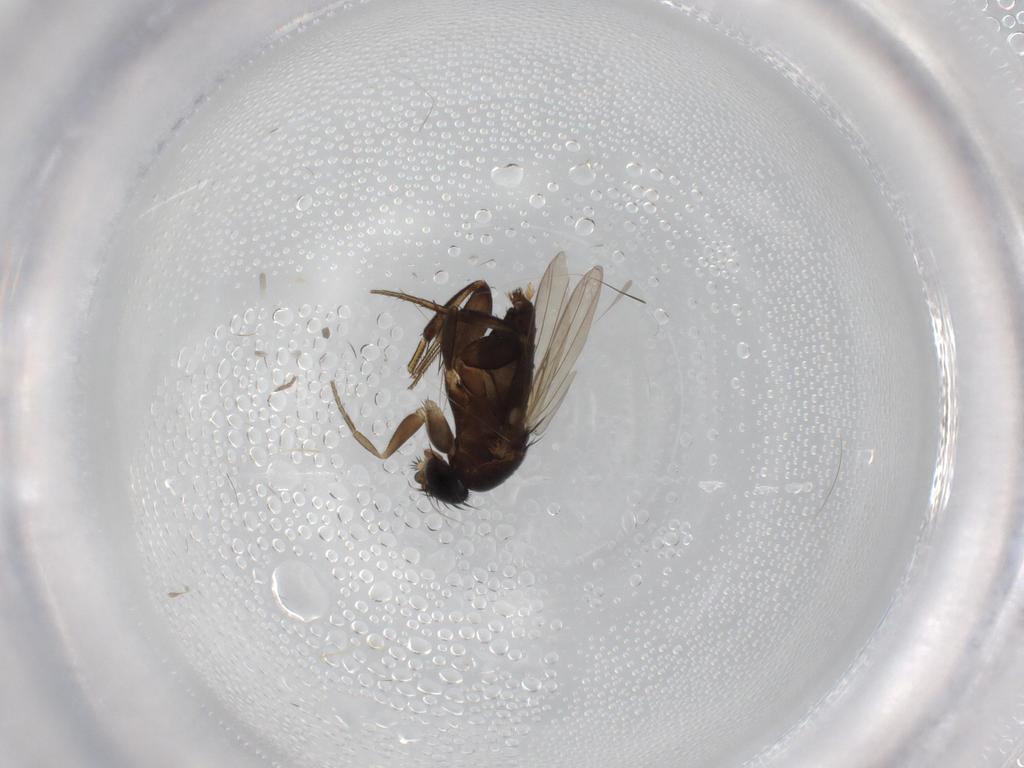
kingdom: Animalia
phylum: Arthropoda
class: Insecta
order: Diptera
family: Phoridae
